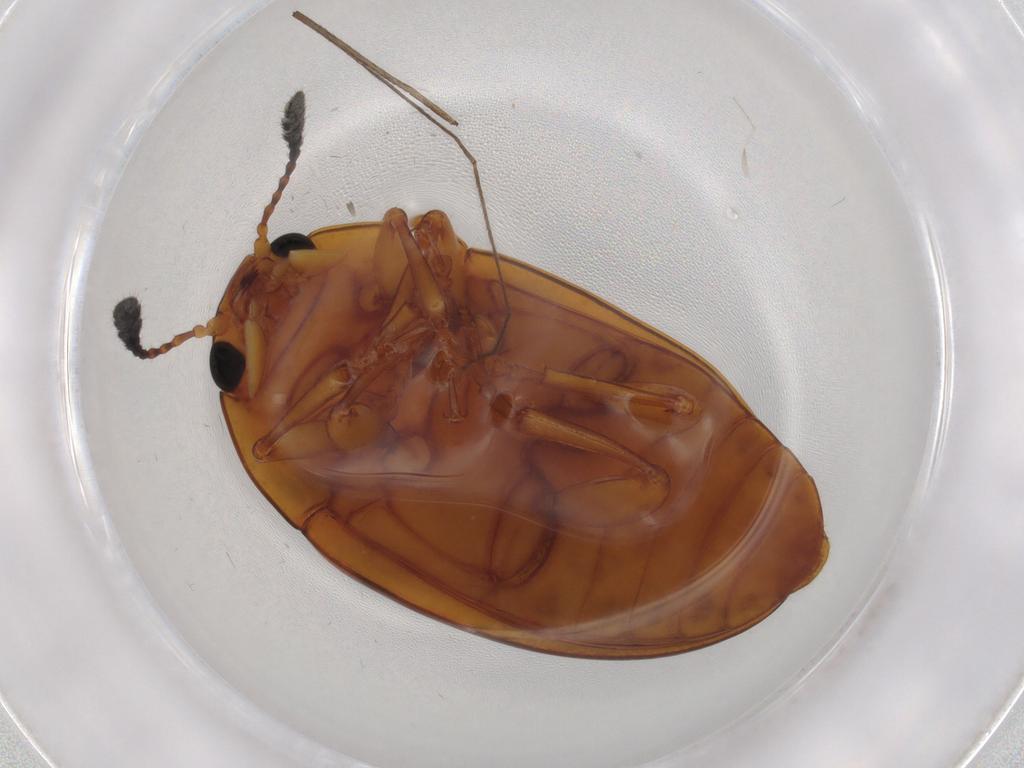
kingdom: Animalia
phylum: Arthropoda
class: Insecta
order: Coleoptera
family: Erotylidae
